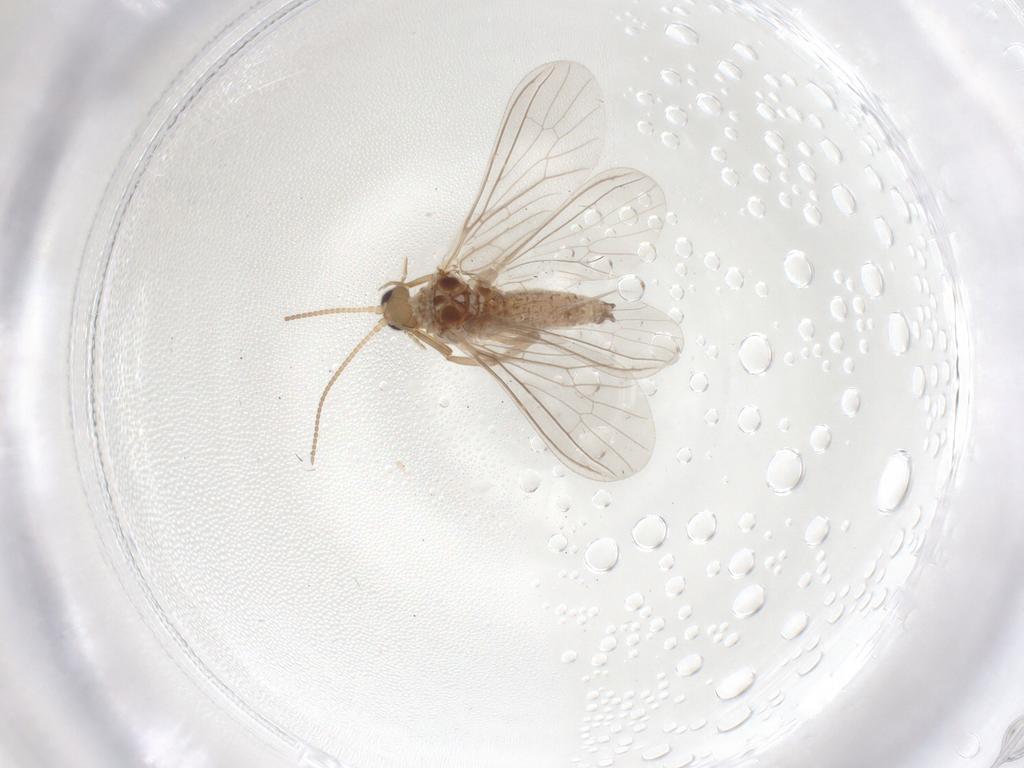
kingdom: Animalia
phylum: Arthropoda
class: Insecta
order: Neuroptera
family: Coniopterygidae
